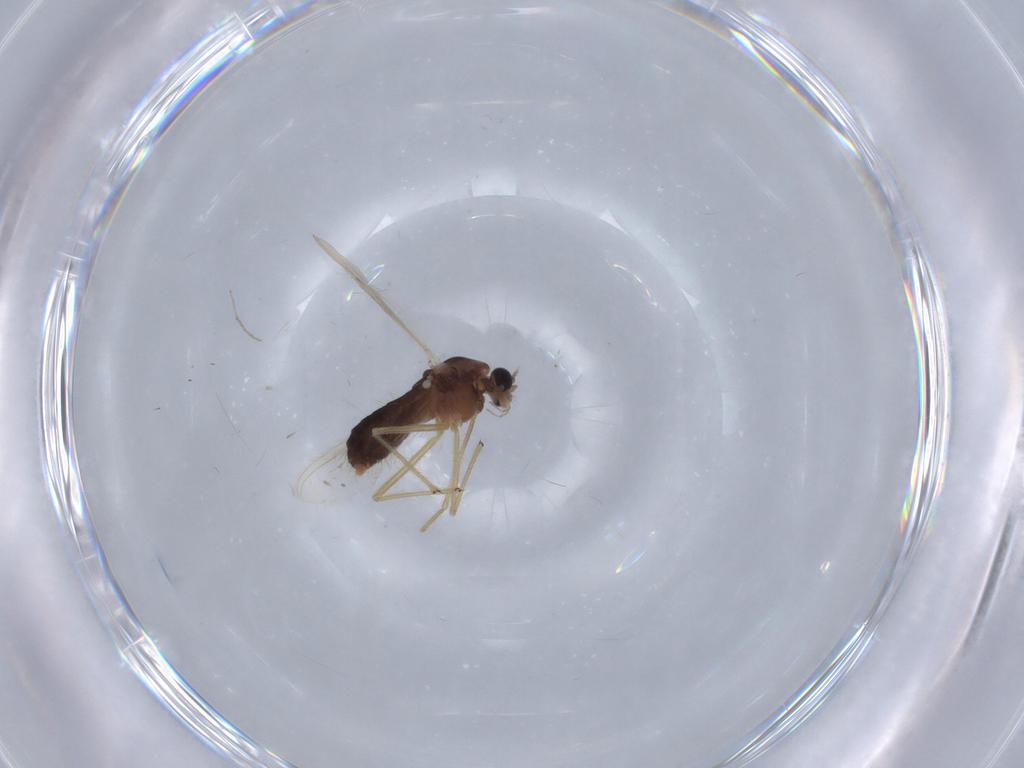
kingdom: Animalia
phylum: Arthropoda
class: Insecta
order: Diptera
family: Chironomidae
